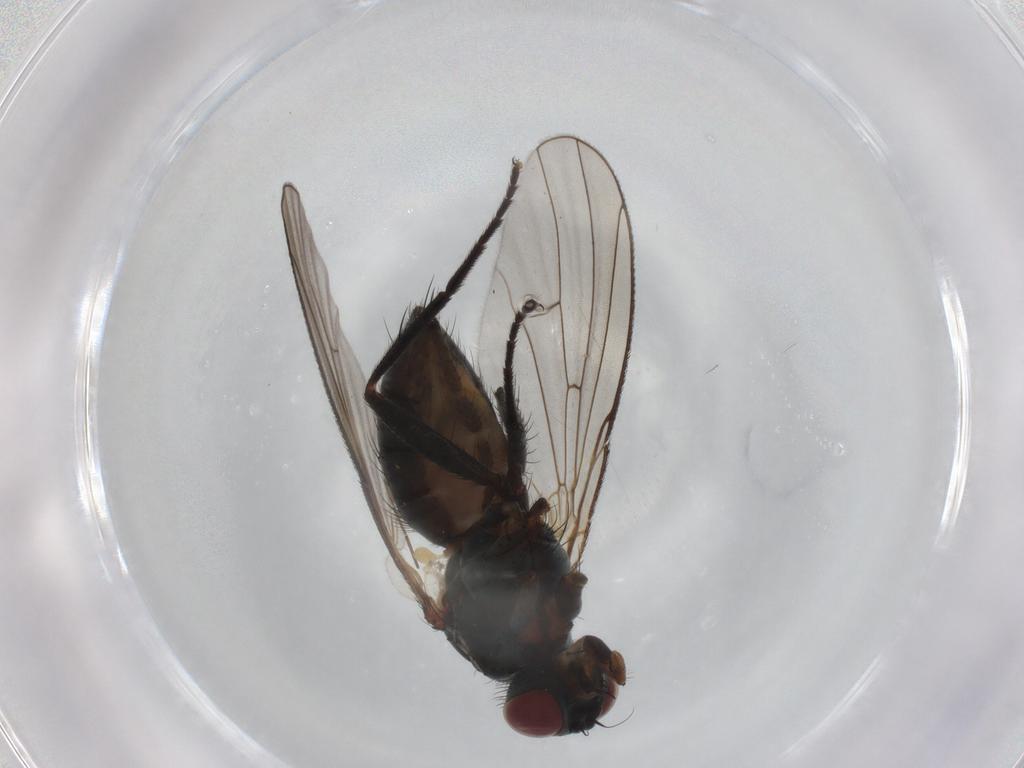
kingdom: Animalia
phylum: Arthropoda
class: Insecta
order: Diptera
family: Muscidae
